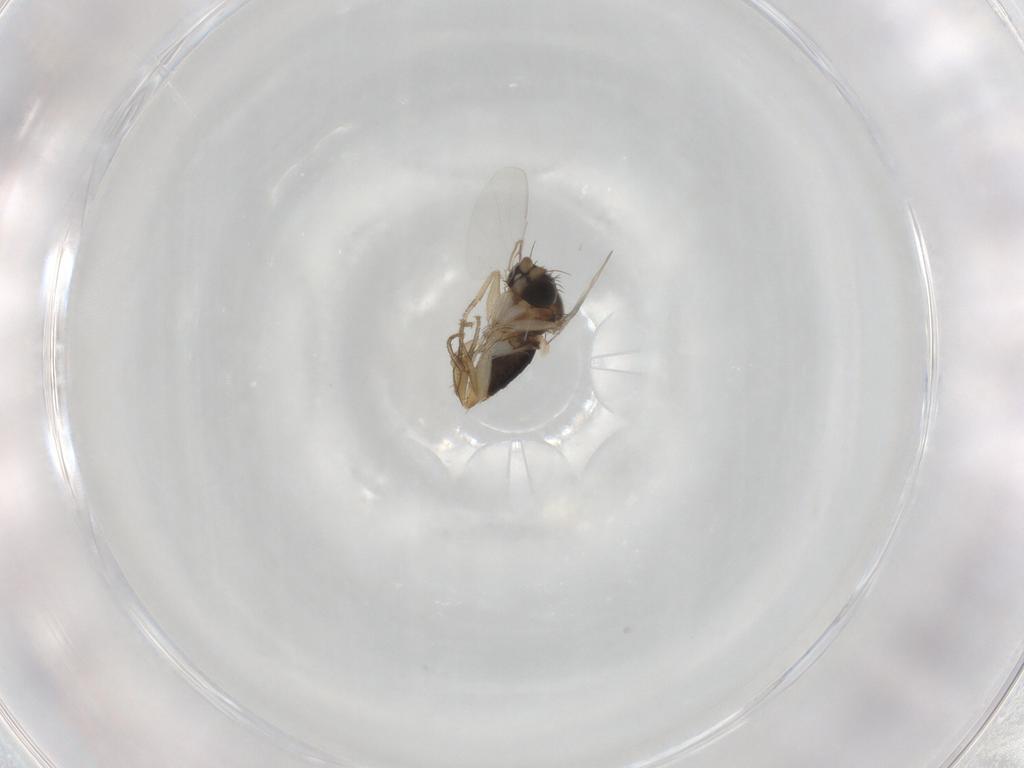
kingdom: Animalia
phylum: Arthropoda
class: Insecta
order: Diptera
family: Phoridae
